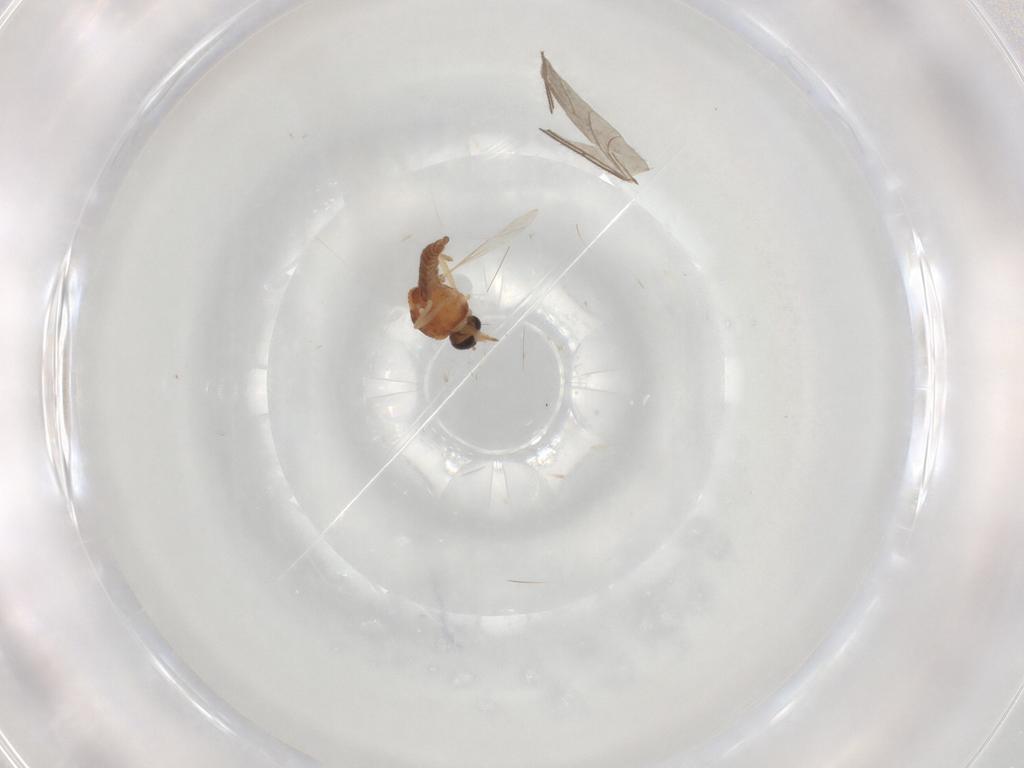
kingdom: Animalia
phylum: Arthropoda
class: Insecta
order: Diptera
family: Ceratopogonidae
